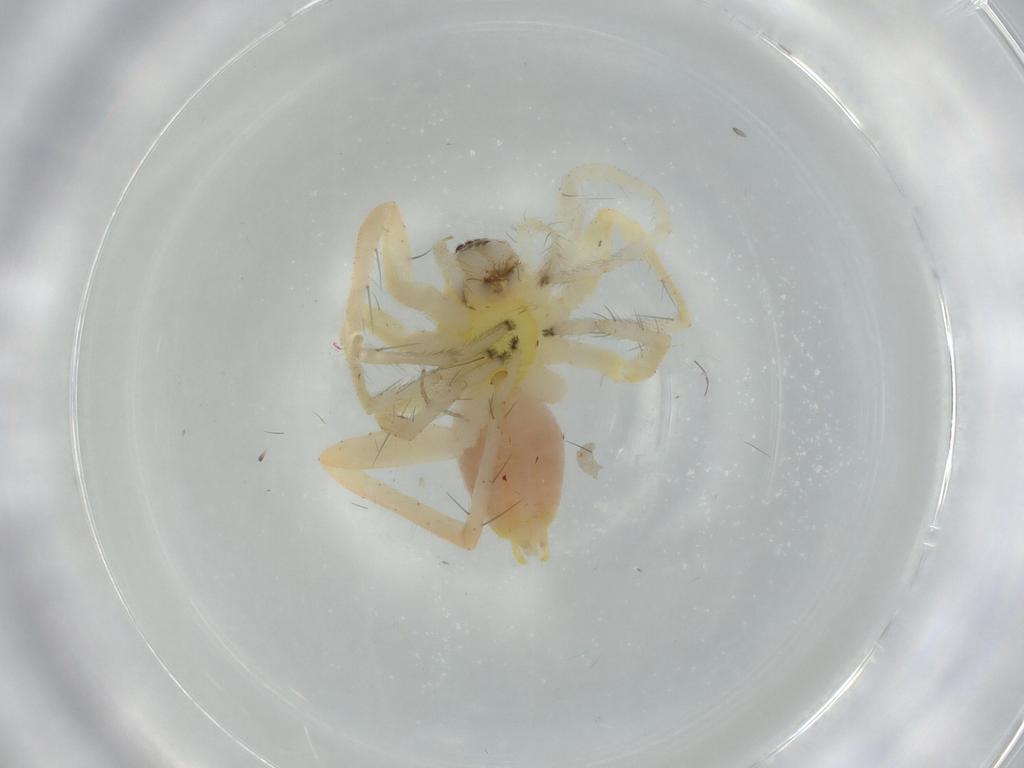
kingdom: Animalia
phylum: Arthropoda
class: Arachnida
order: Araneae
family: Anyphaenidae
